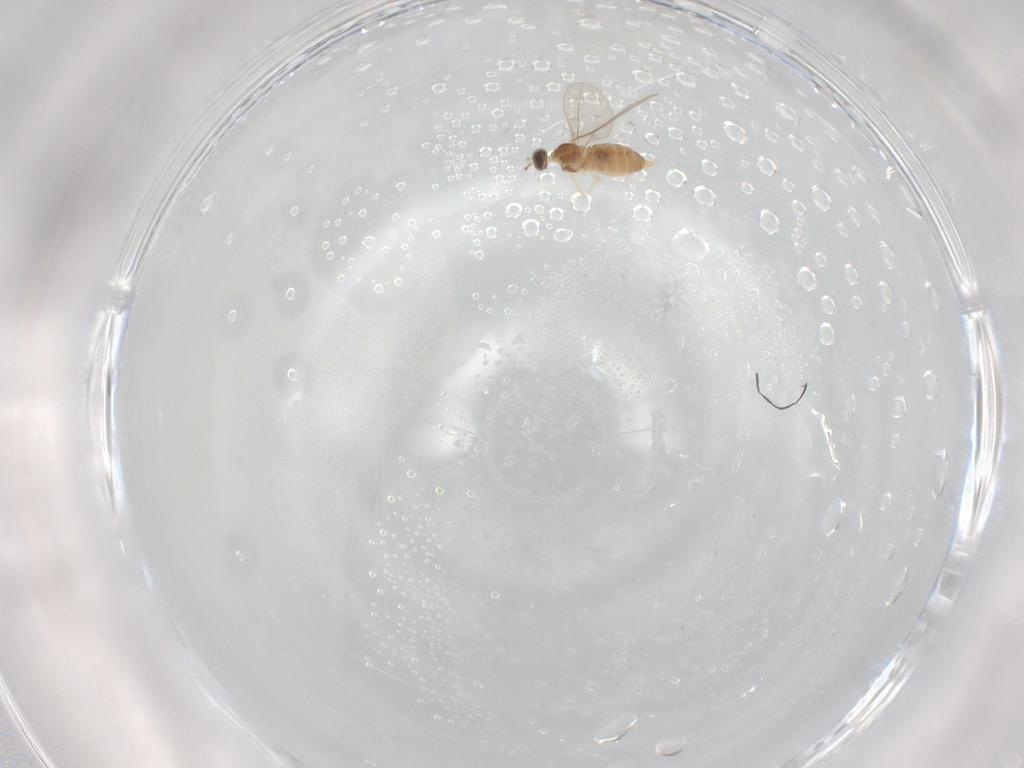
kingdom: Animalia
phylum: Arthropoda
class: Insecta
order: Diptera
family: Cecidomyiidae
